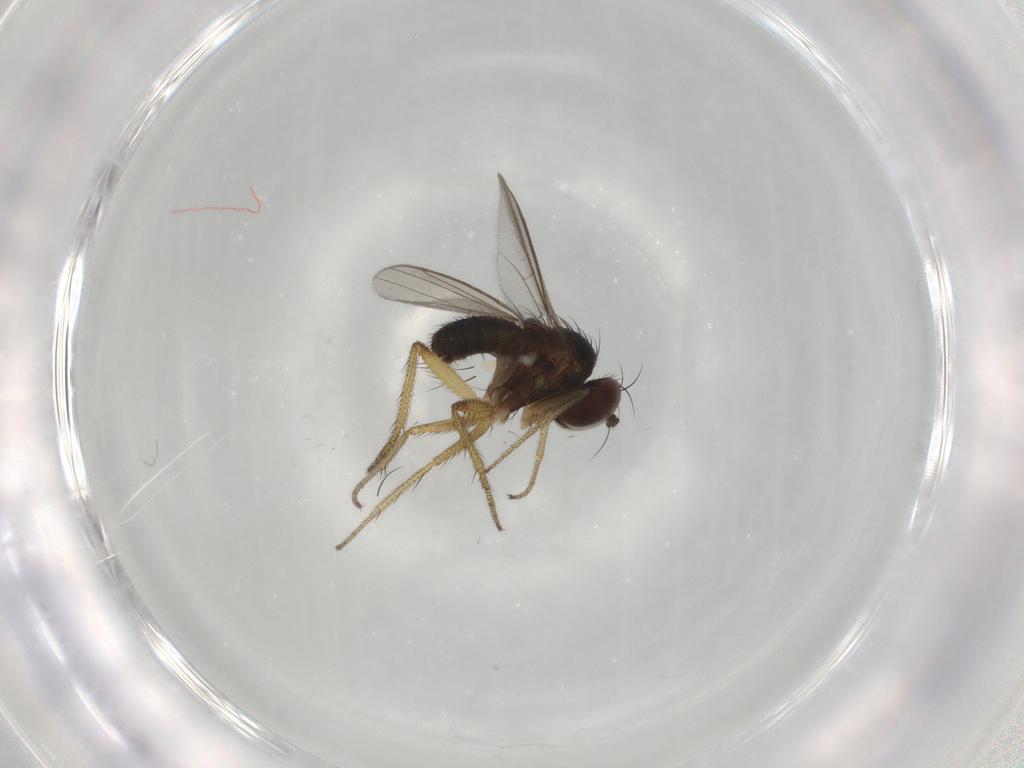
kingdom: Animalia
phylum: Arthropoda
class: Insecta
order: Diptera
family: Dolichopodidae
